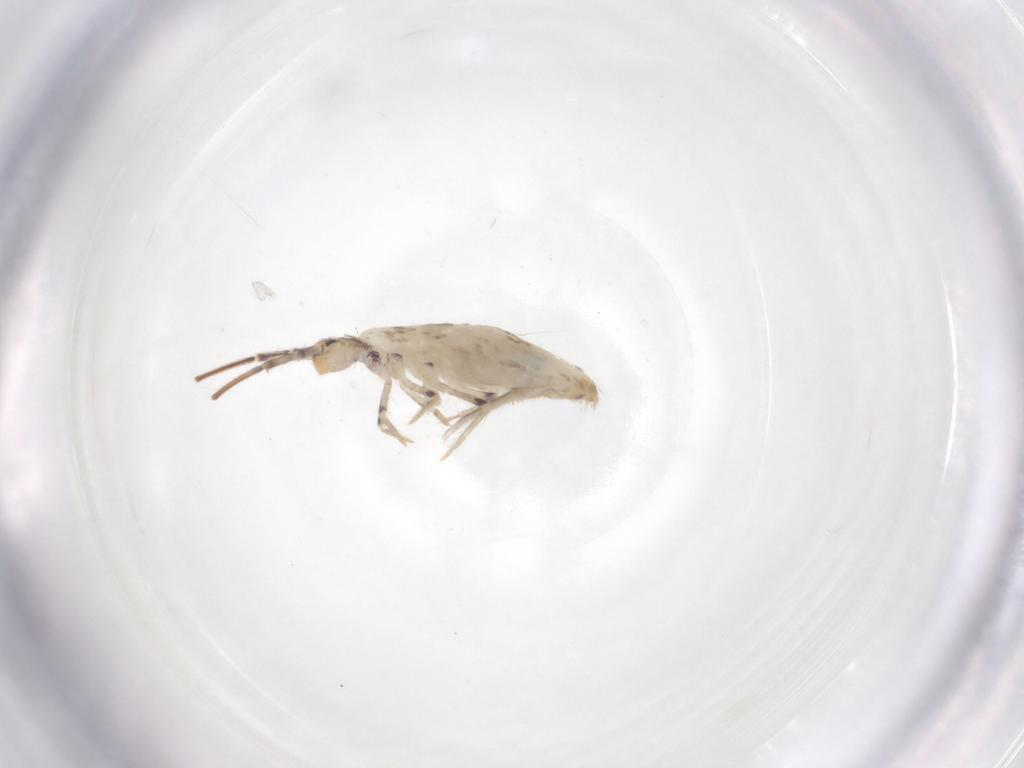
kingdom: Animalia
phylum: Arthropoda
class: Collembola
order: Entomobryomorpha
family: Entomobryidae
